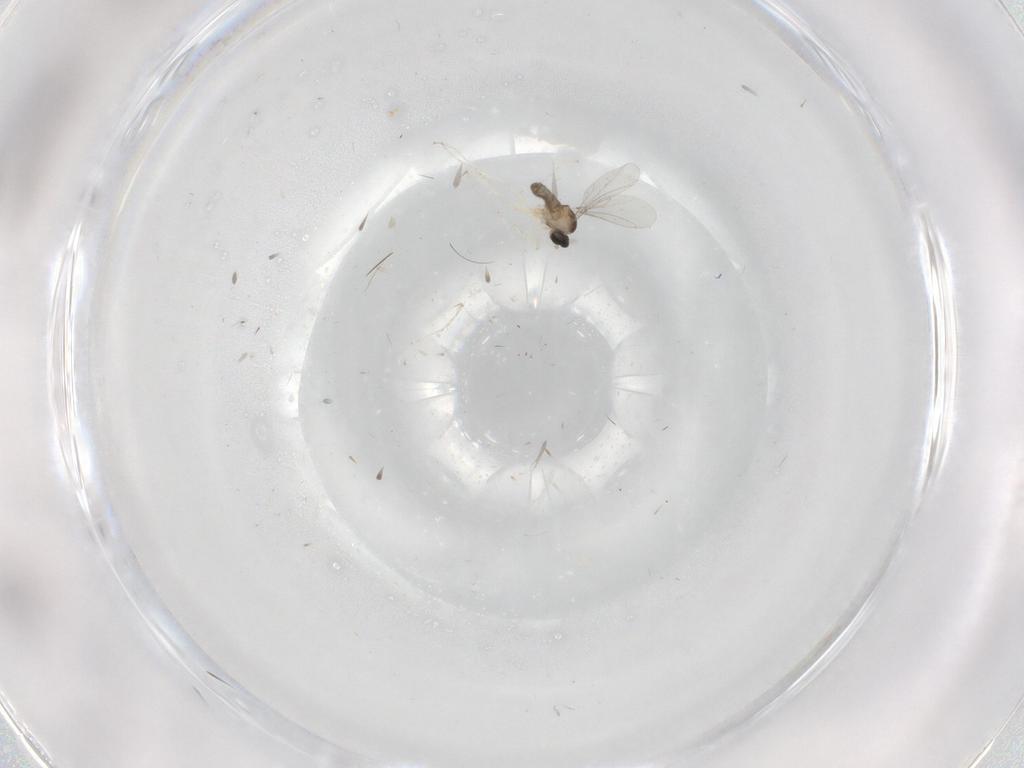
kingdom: Animalia
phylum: Arthropoda
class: Insecta
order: Diptera
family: Cecidomyiidae
